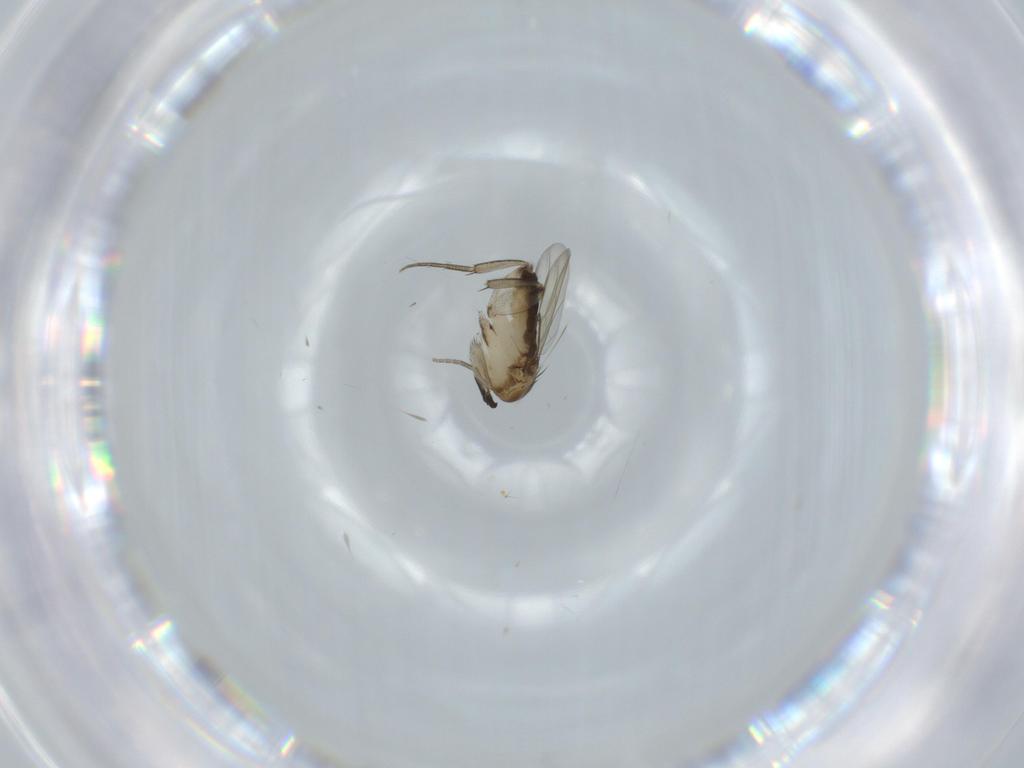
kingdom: Animalia
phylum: Arthropoda
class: Insecta
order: Diptera
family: Phoridae
